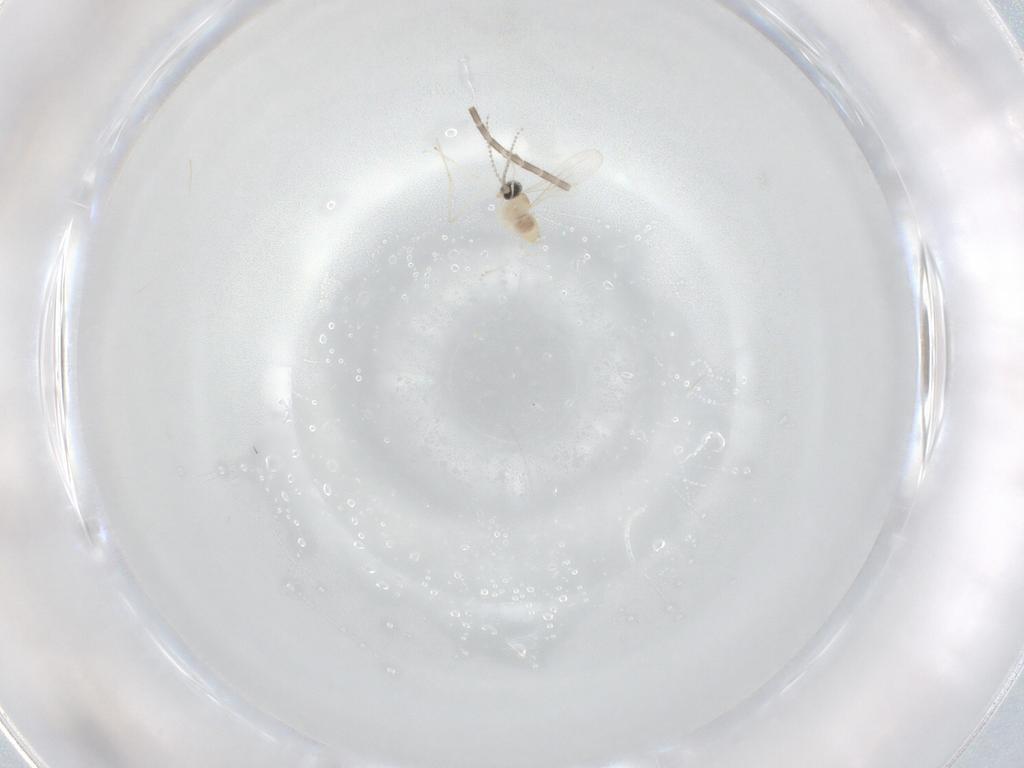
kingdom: Animalia
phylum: Arthropoda
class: Insecta
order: Diptera
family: Cecidomyiidae
